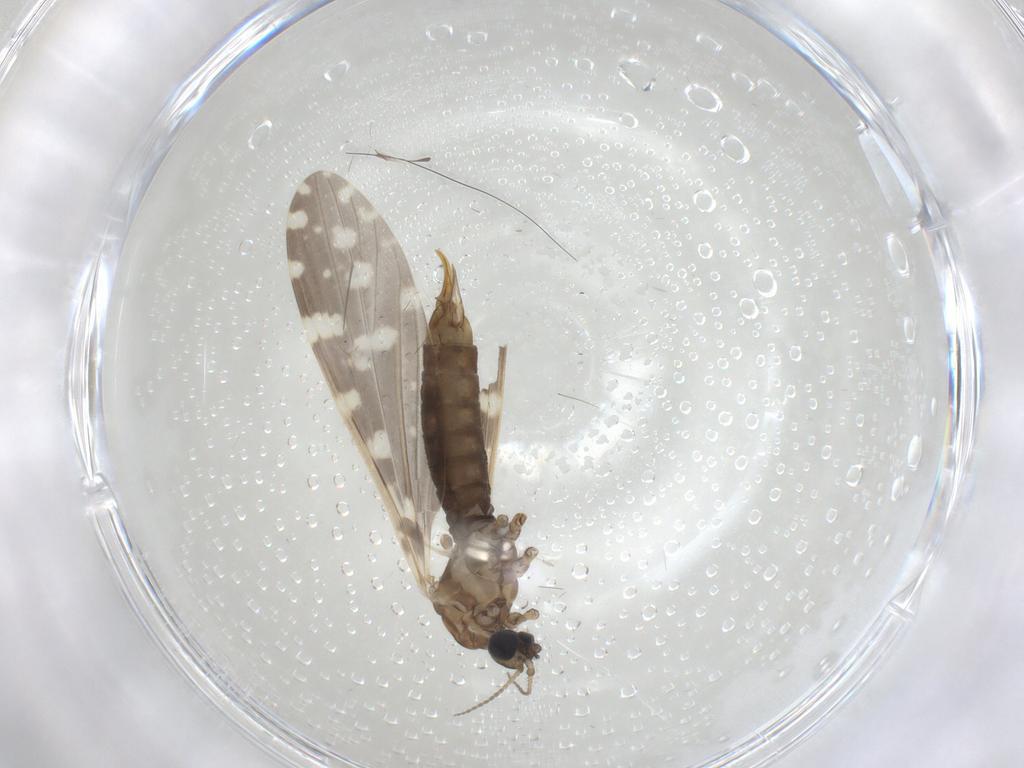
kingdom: Animalia
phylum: Arthropoda
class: Insecta
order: Diptera
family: Limoniidae
